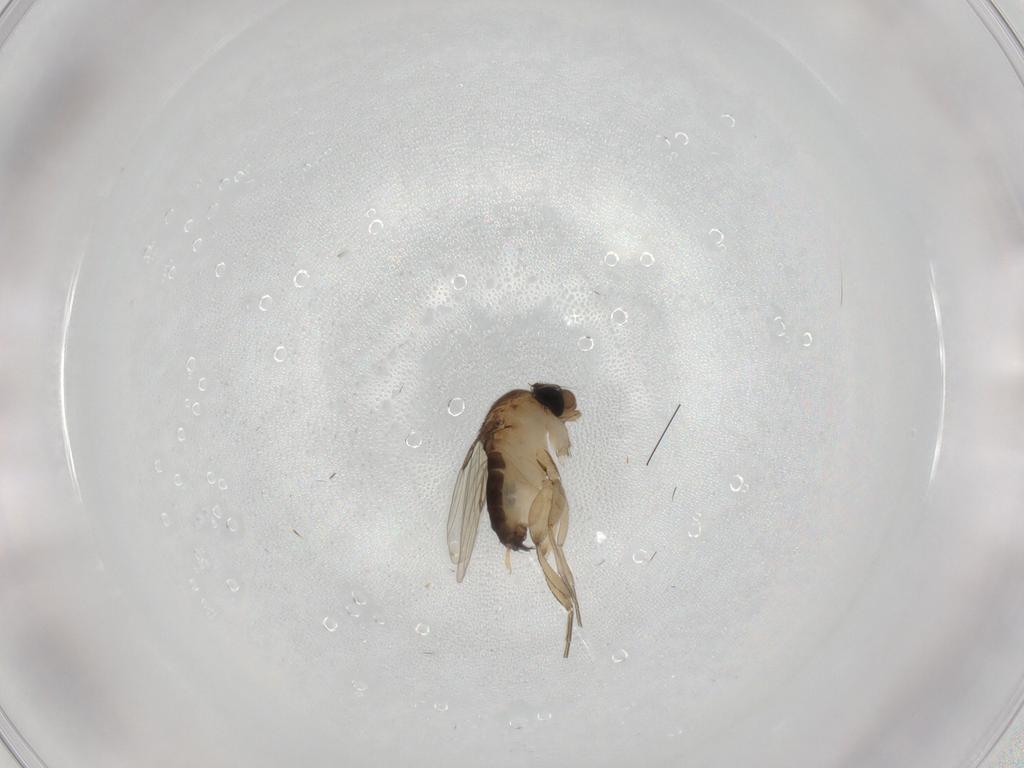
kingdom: Animalia
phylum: Arthropoda
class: Insecta
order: Diptera
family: Phoridae
